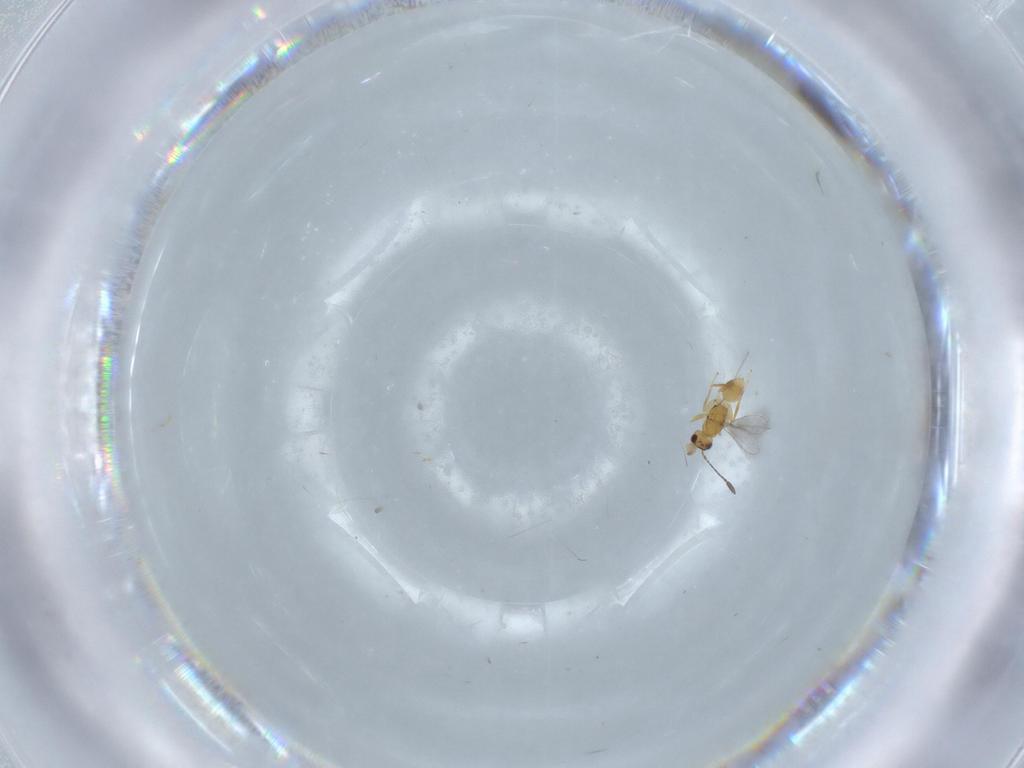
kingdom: Animalia
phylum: Arthropoda
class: Insecta
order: Hymenoptera
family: Mymaridae
